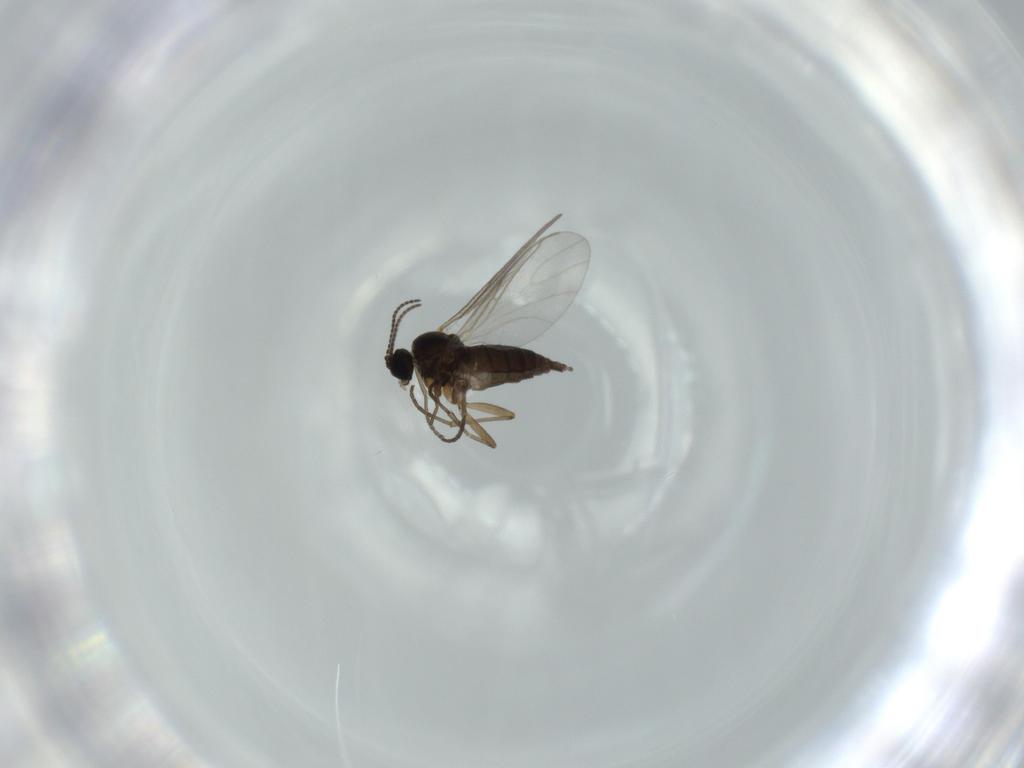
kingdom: Animalia
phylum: Arthropoda
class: Insecta
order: Diptera
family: Sciaridae
